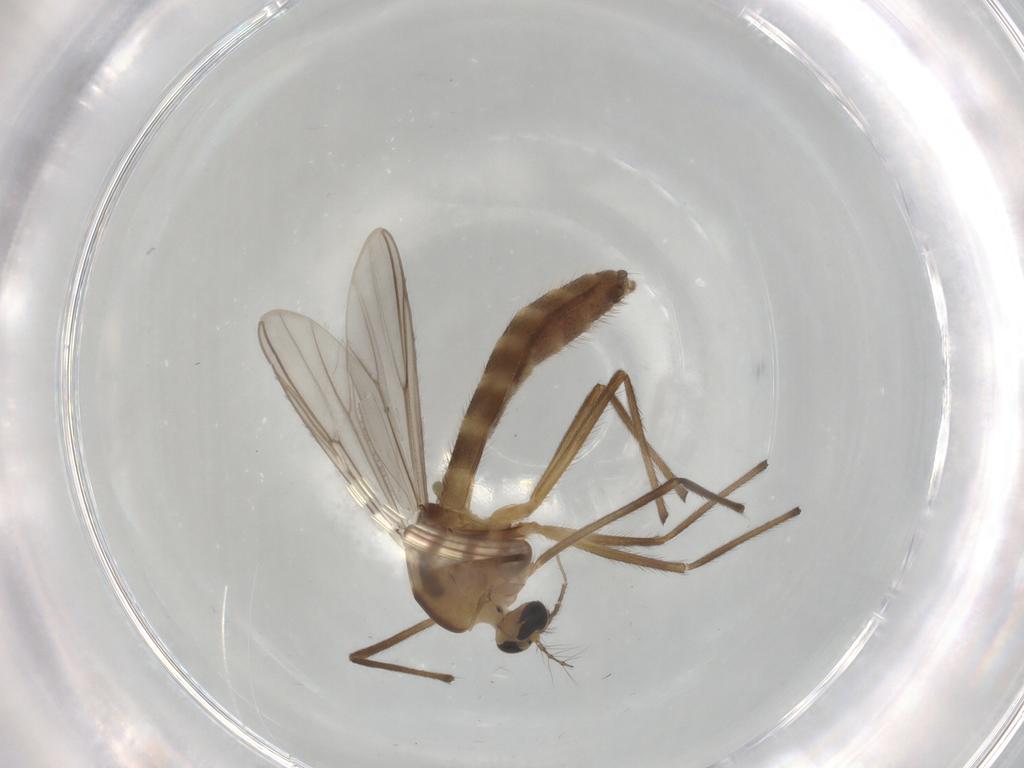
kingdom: Animalia
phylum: Arthropoda
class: Insecta
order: Diptera
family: Chironomidae
